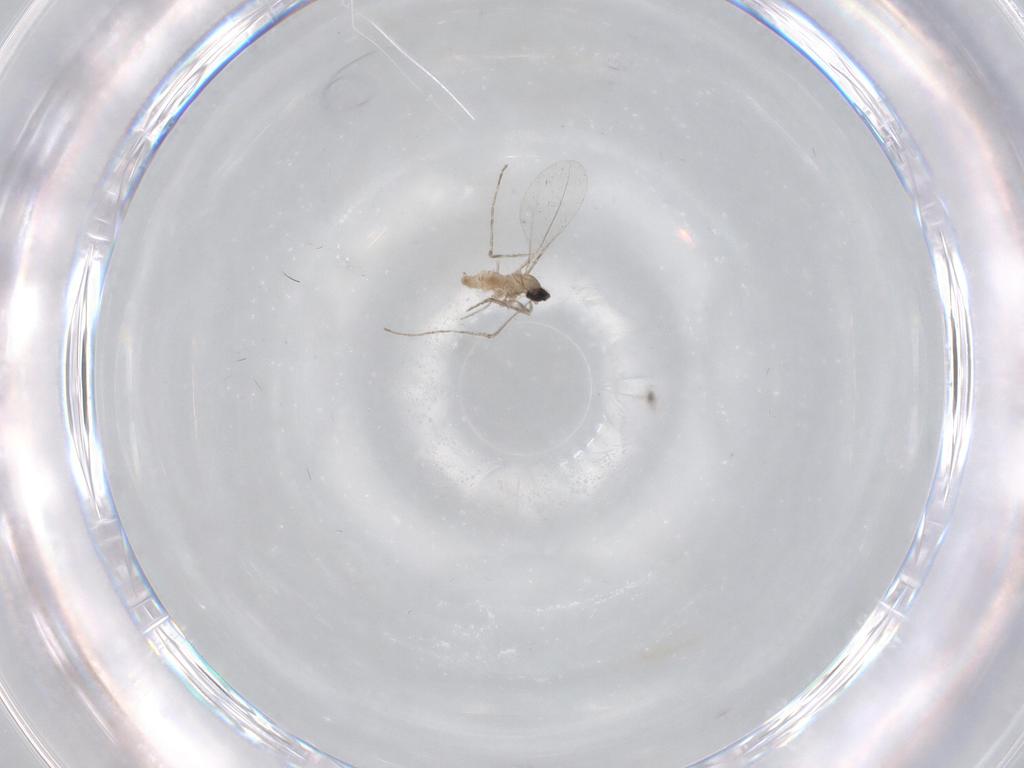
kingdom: Animalia
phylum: Arthropoda
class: Insecta
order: Diptera
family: Cecidomyiidae
